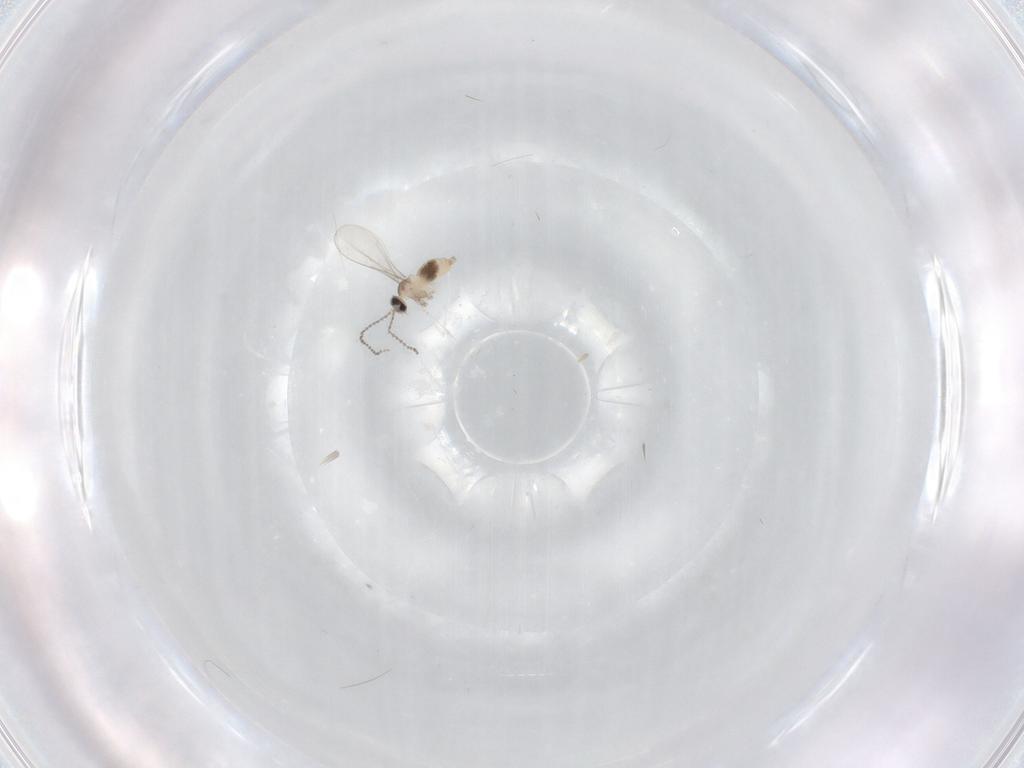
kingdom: Animalia
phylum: Arthropoda
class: Insecta
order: Diptera
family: Cecidomyiidae
